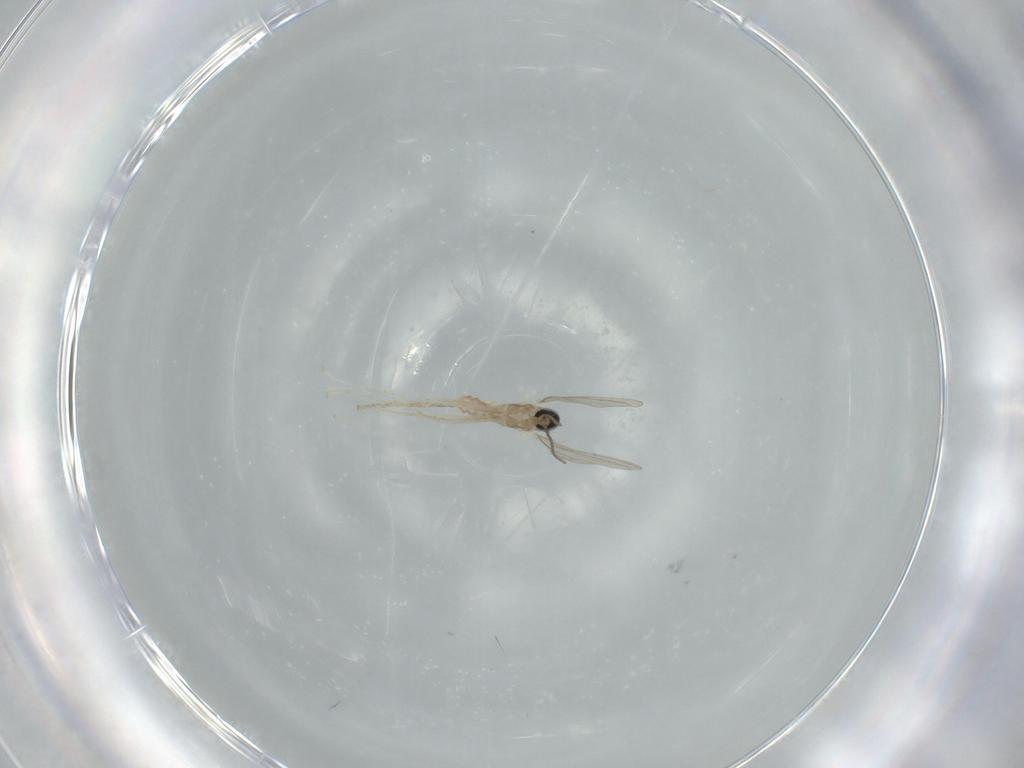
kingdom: Animalia
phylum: Arthropoda
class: Insecta
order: Diptera
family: Cecidomyiidae
